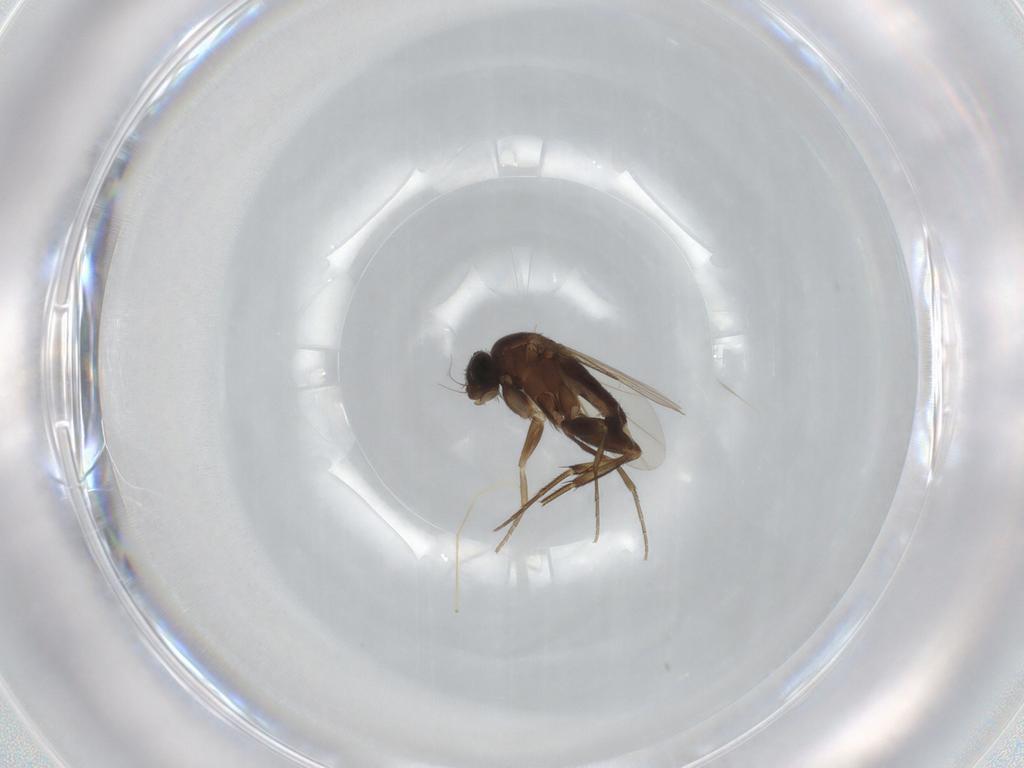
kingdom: Animalia
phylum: Arthropoda
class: Insecta
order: Diptera
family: Phoridae
